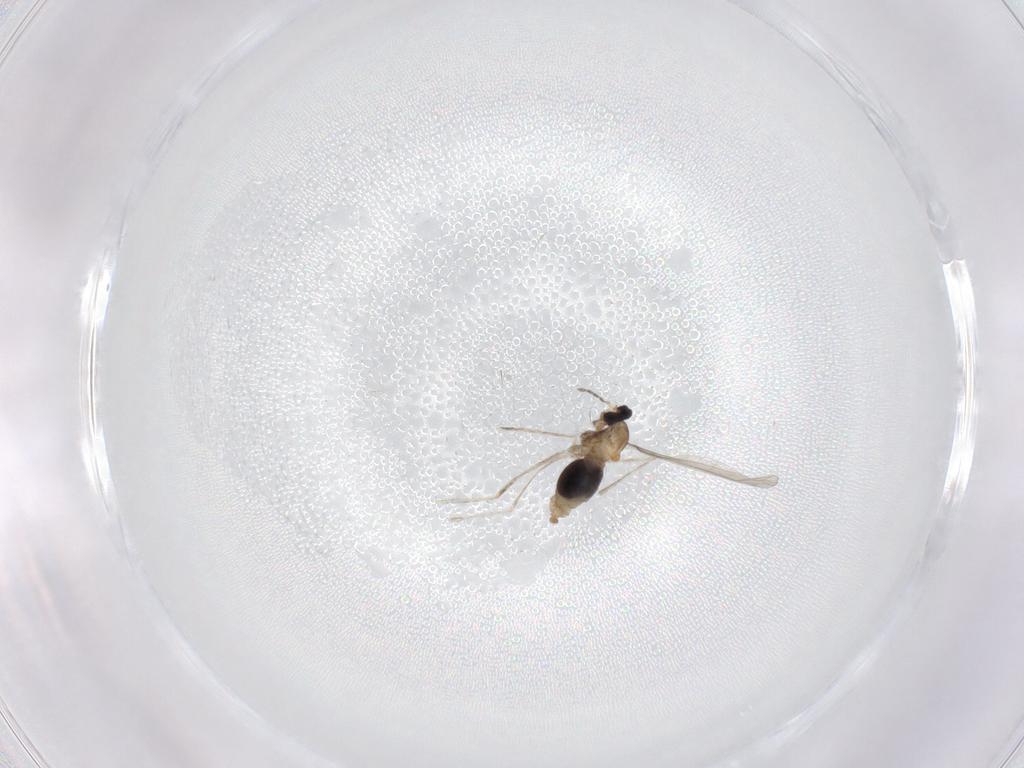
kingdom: Animalia
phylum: Arthropoda
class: Insecta
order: Diptera
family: Cecidomyiidae
